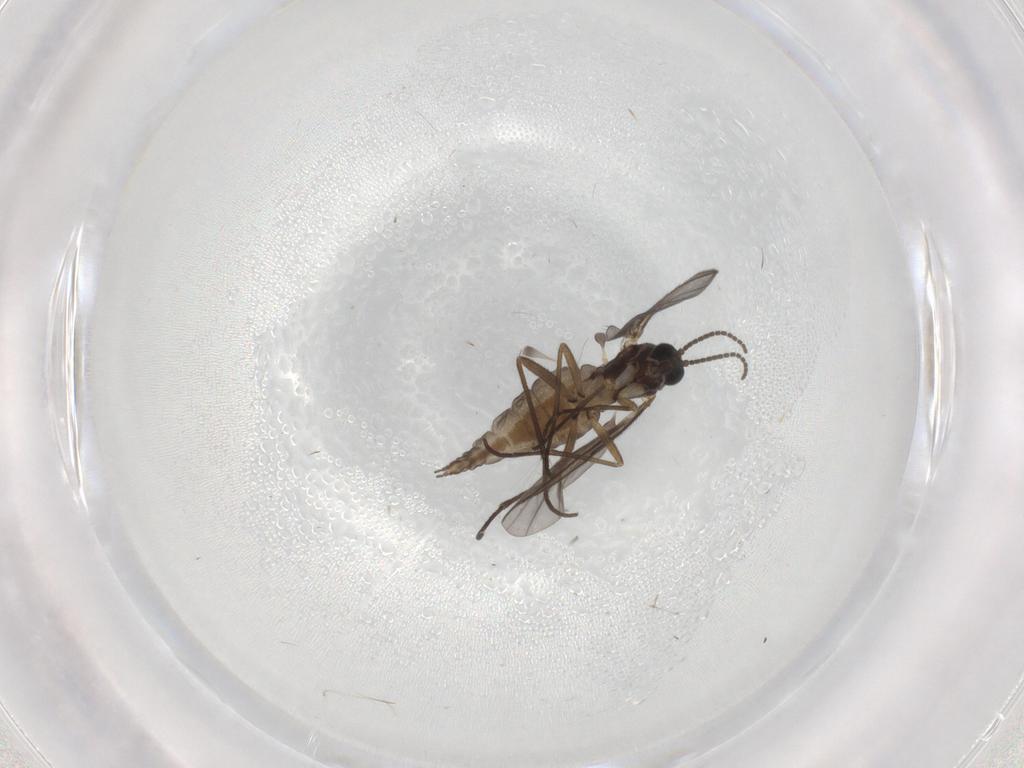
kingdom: Animalia
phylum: Arthropoda
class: Insecta
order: Diptera
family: Sciaridae
